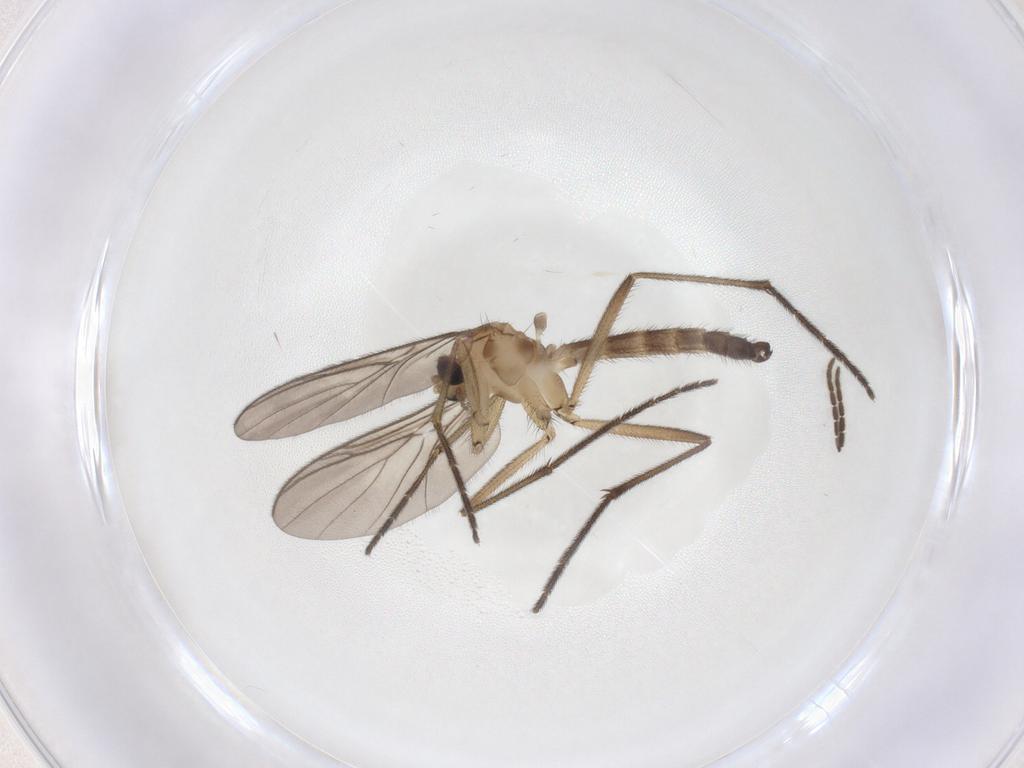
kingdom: Animalia
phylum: Arthropoda
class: Insecta
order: Diptera
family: Keroplatidae
